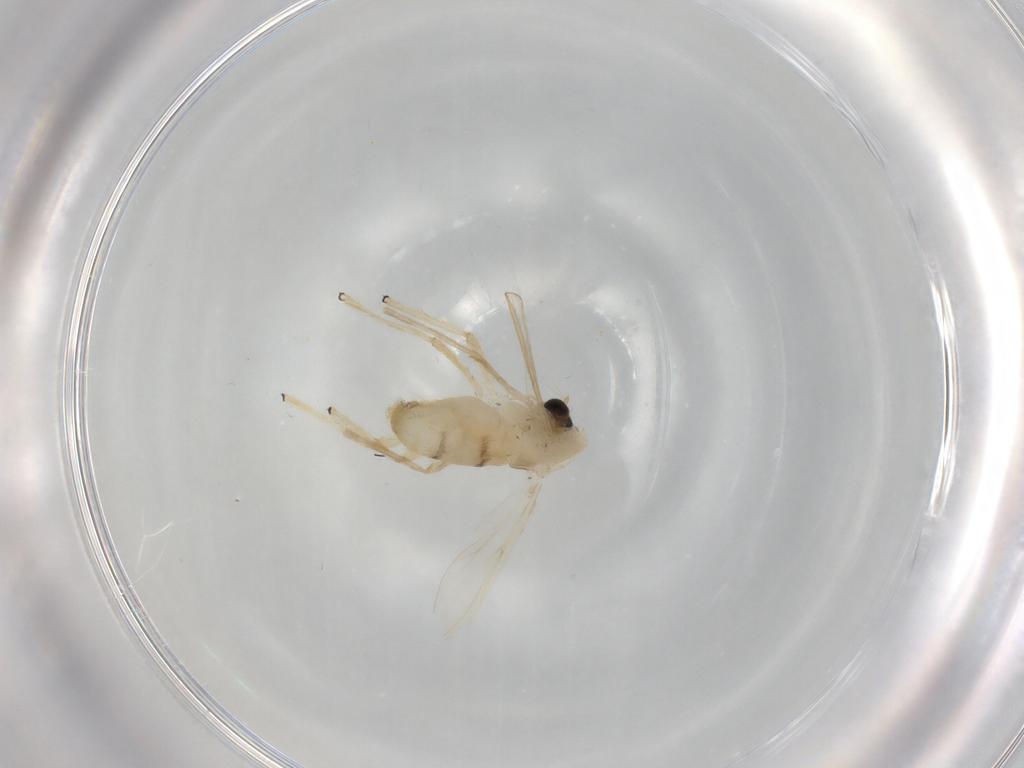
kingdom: Animalia
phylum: Arthropoda
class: Insecta
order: Diptera
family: Chironomidae
